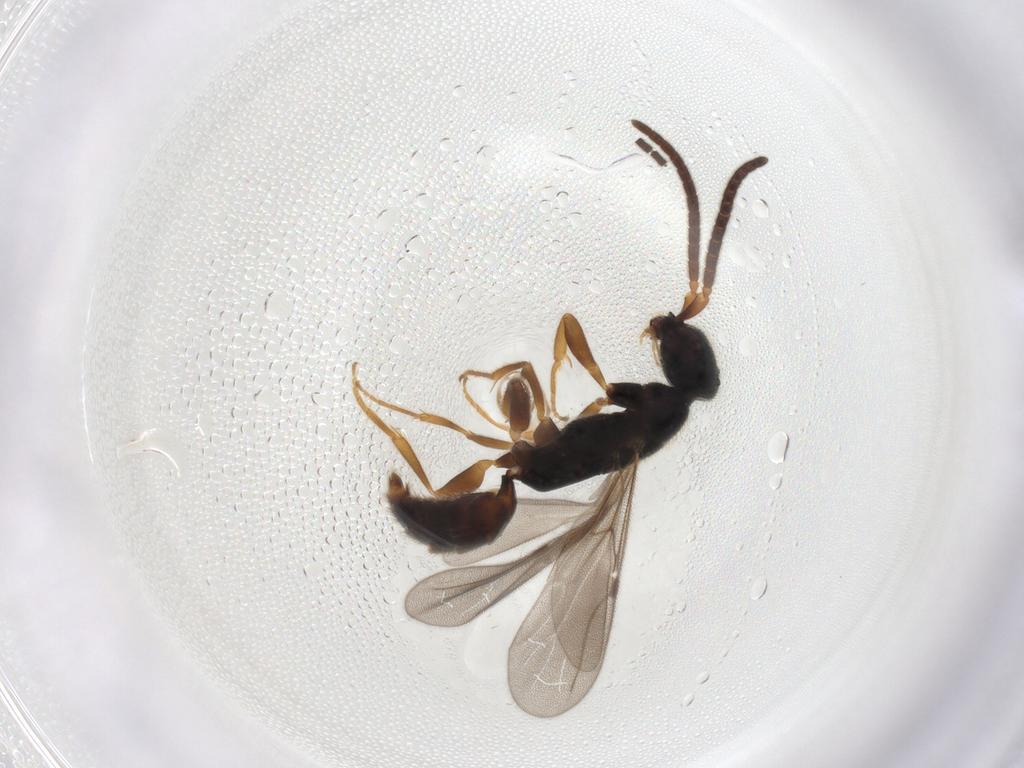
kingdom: Animalia
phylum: Arthropoda
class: Insecta
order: Hymenoptera
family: Bethylidae
